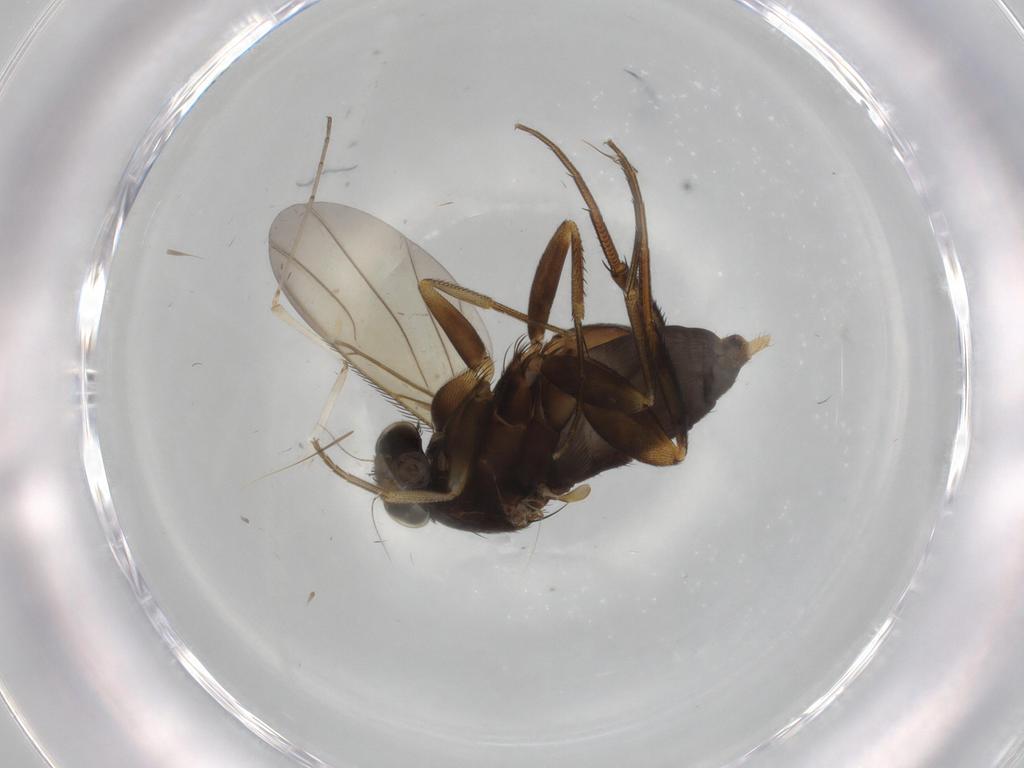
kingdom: Animalia
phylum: Arthropoda
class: Insecta
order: Diptera
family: Phoridae
